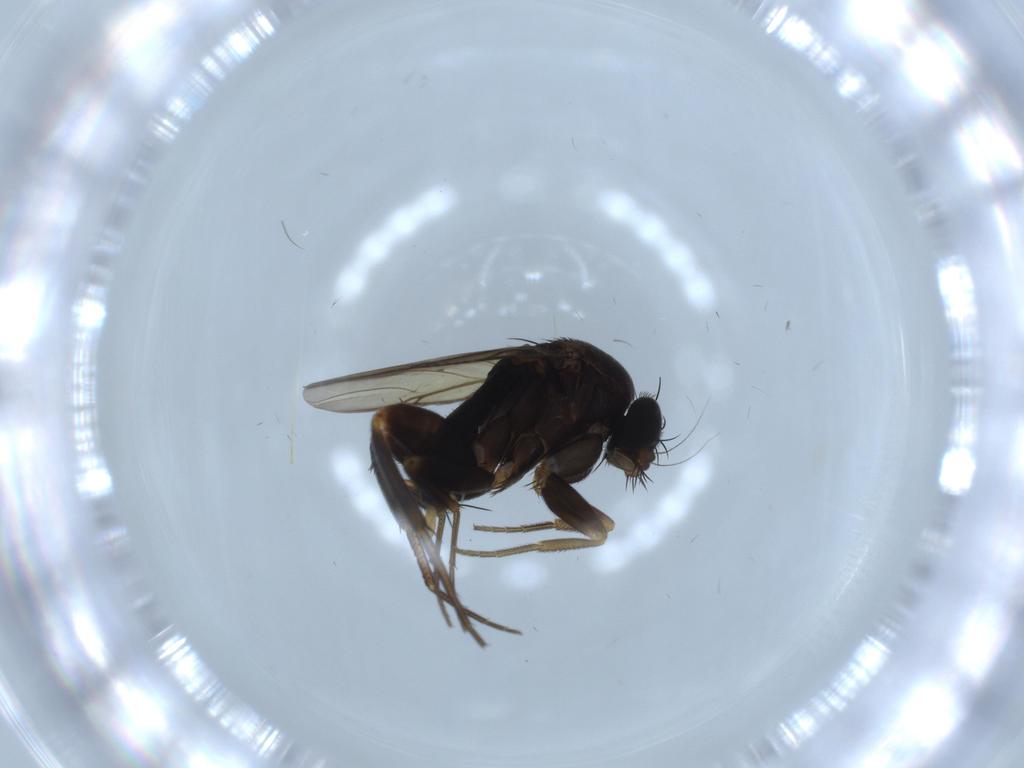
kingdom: Animalia
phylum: Arthropoda
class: Insecta
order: Diptera
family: Phoridae
